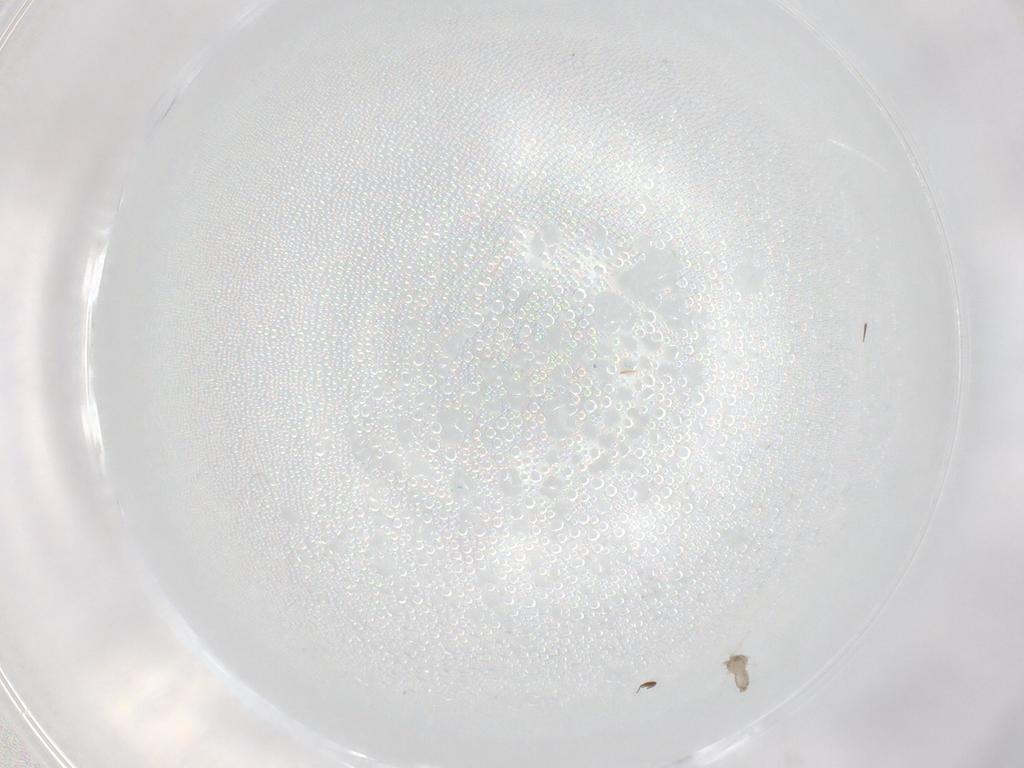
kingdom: Animalia
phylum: Arthropoda
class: Insecta
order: Diptera
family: Cecidomyiidae
